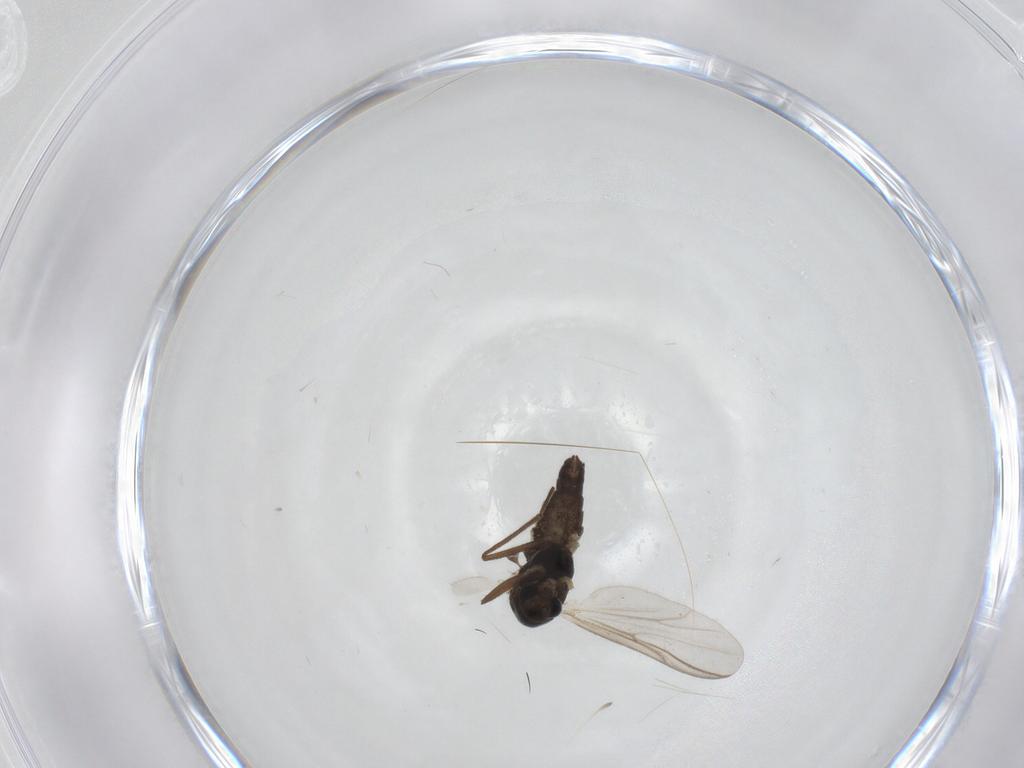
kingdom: Animalia
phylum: Arthropoda
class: Insecta
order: Diptera
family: Chironomidae
